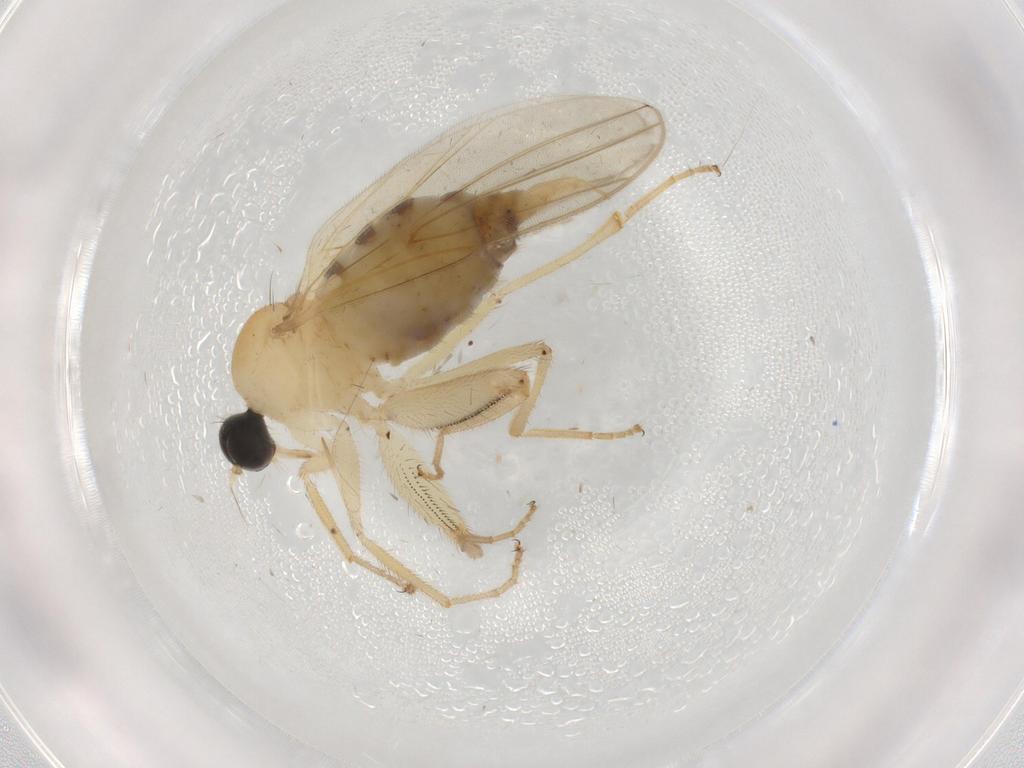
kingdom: Animalia
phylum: Arthropoda
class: Insecta
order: Diptera
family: Hybotidae
